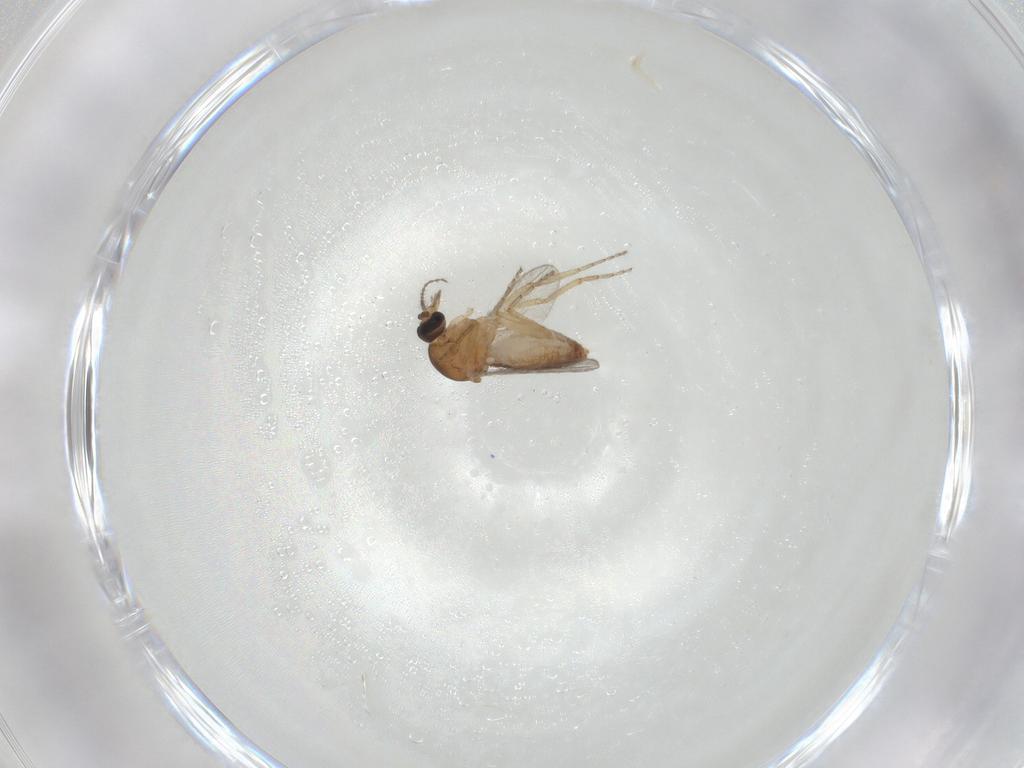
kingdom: Animalia
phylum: Arthropoda
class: Insecta
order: Diptera
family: Ceratopogonidae
